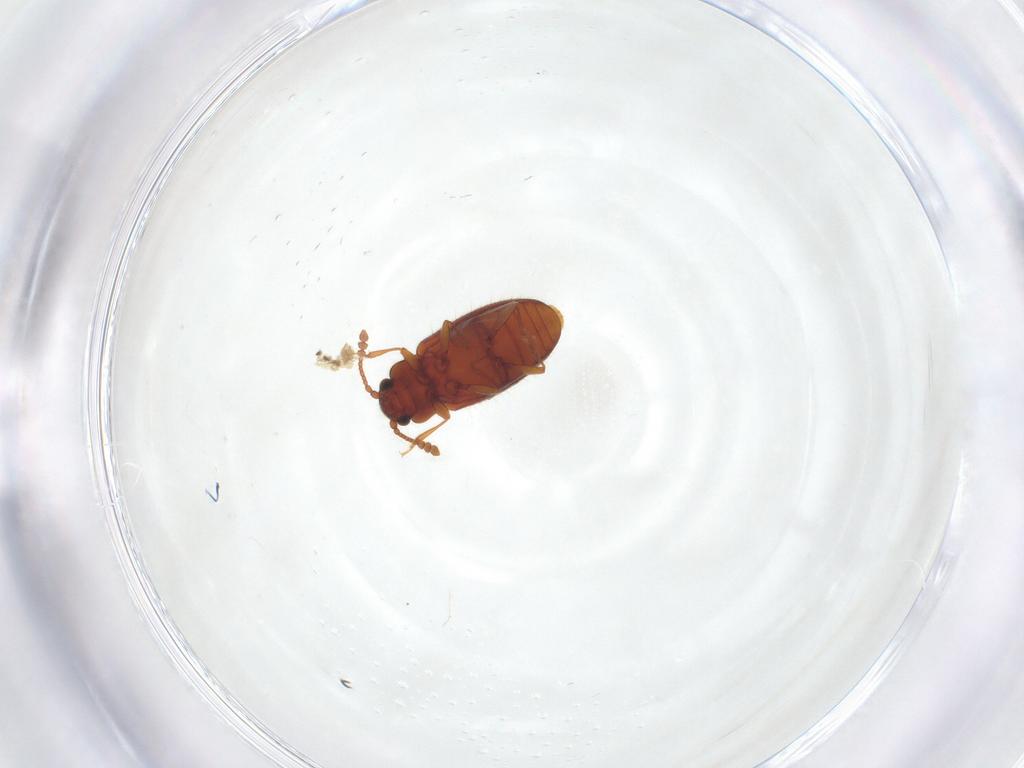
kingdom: Animalia
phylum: Arthropoda
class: Insecta
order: Coleoptera
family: Cryptophagidae
